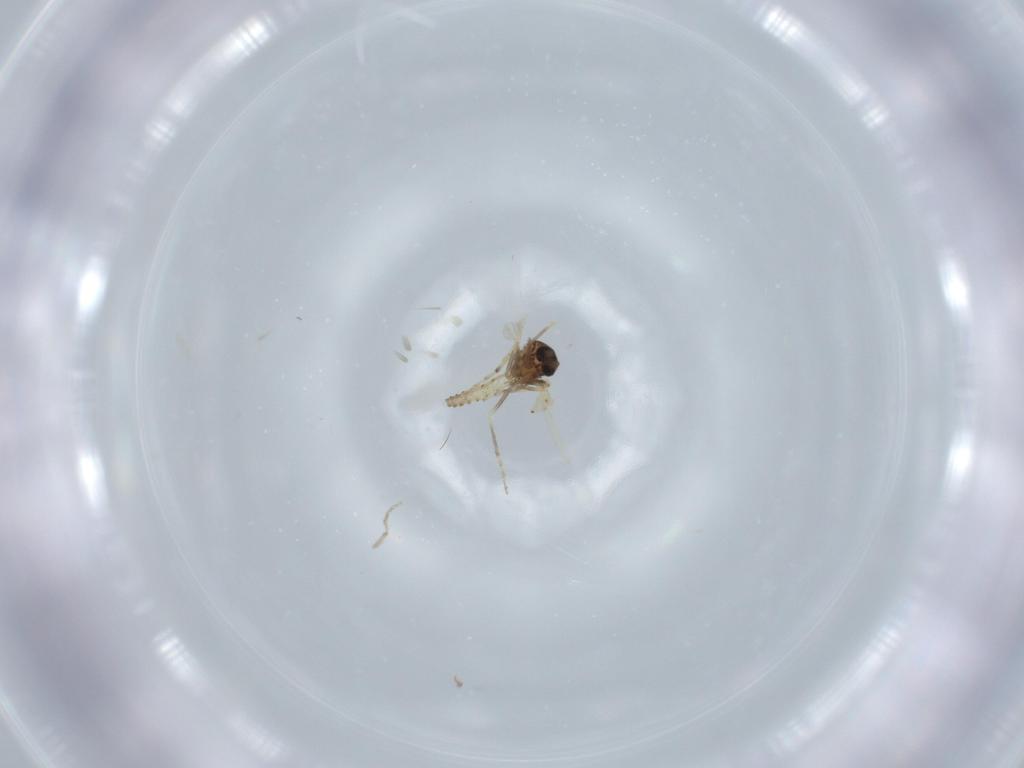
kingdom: Animalia
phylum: Arthropoda
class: Insecta
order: Diptera
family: Ceratopogonidae
